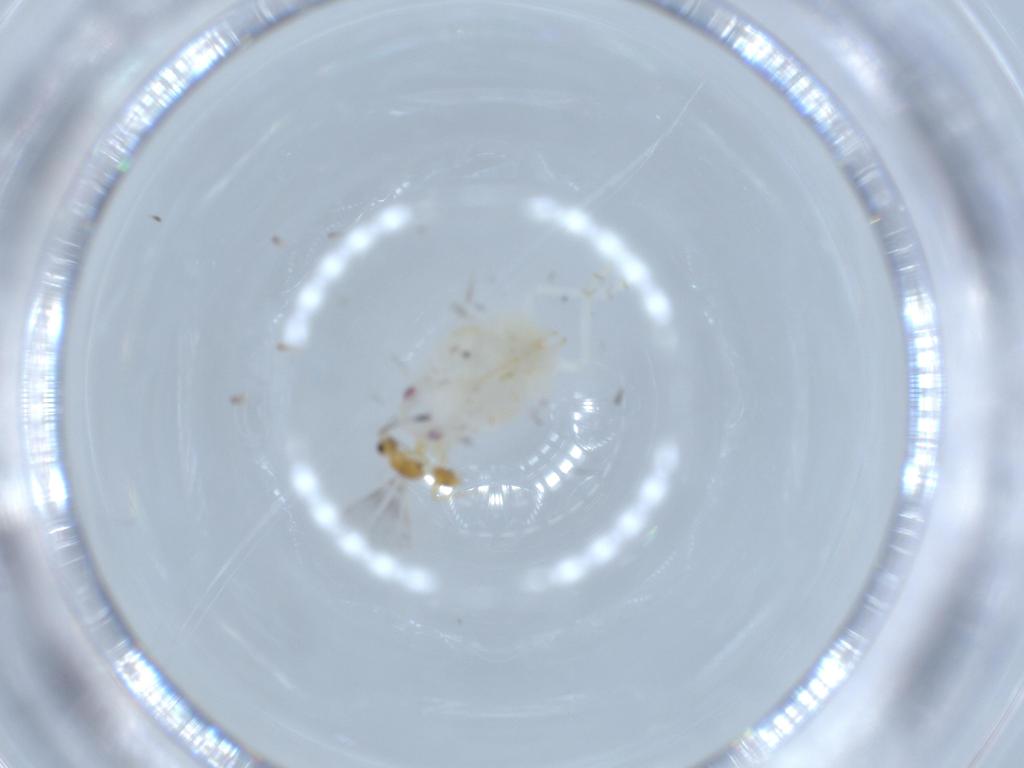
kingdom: Animalia
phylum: Arthropoda
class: Insecta
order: Hemiptera
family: Flatidae
